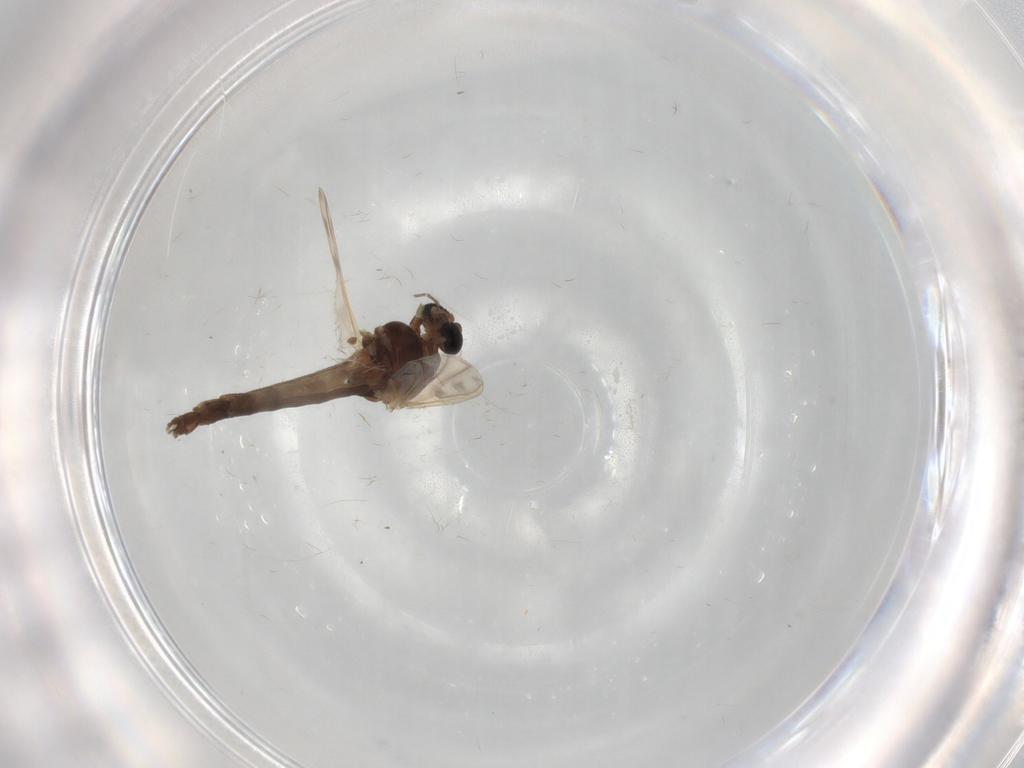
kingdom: Animalia
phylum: Arthropoda
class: Insecta
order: Diptera
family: Chironomidae
